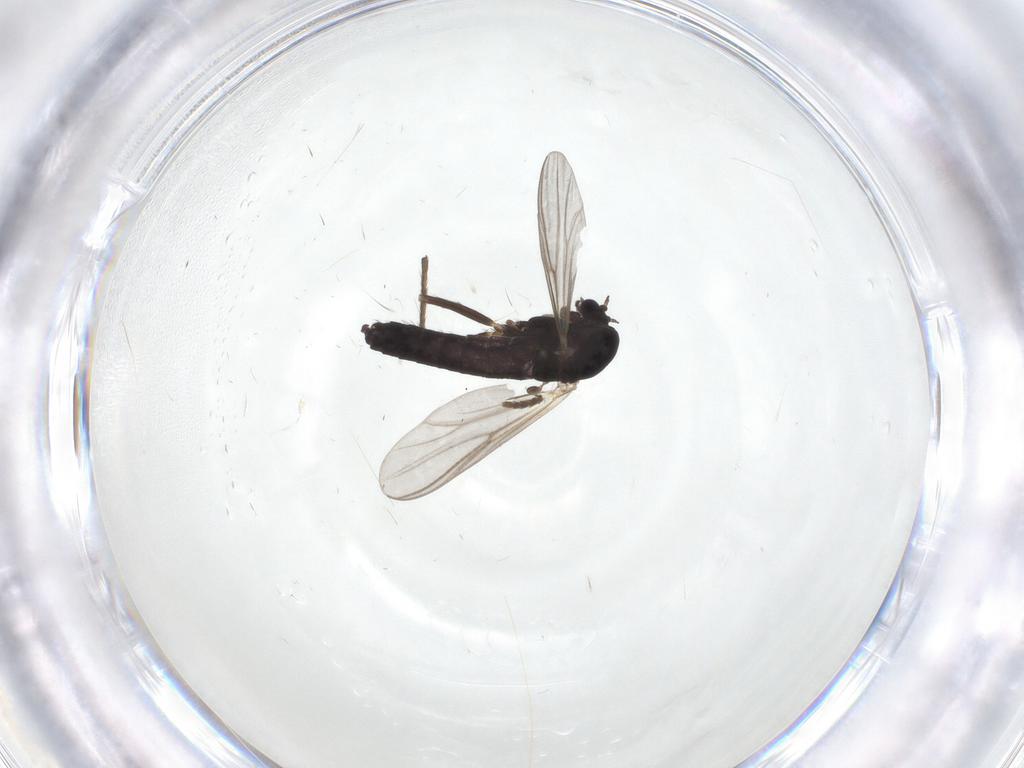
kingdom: Animalia
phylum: Arthropoda
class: Insecta
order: Diptera
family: Chironomidae
